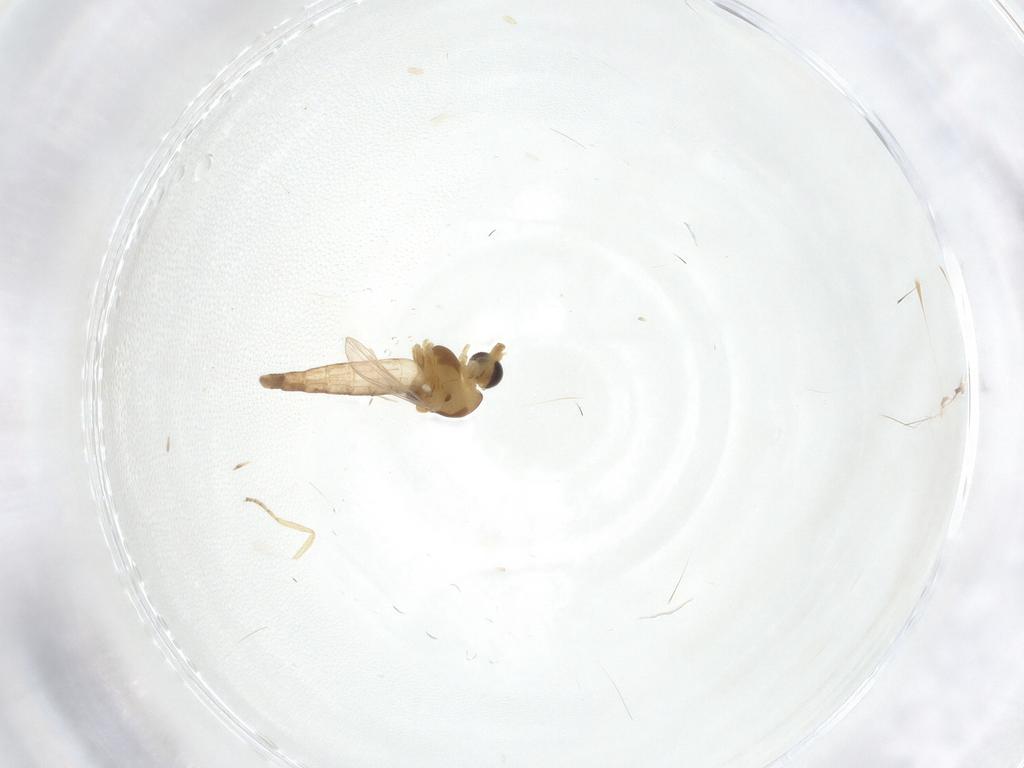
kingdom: Animalia
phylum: Arthropoda
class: Insecta
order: Diptera
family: Chironomidae
